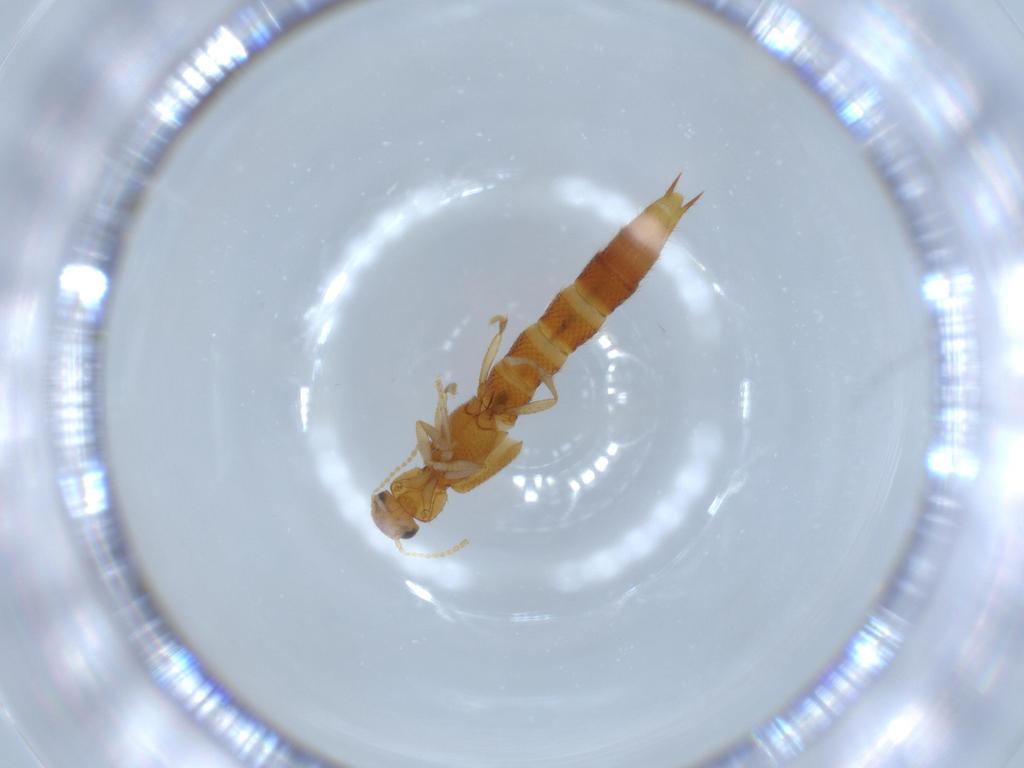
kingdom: Animalia
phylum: Arthropoda
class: Insecta
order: Coleoptera
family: Staphylinidae
